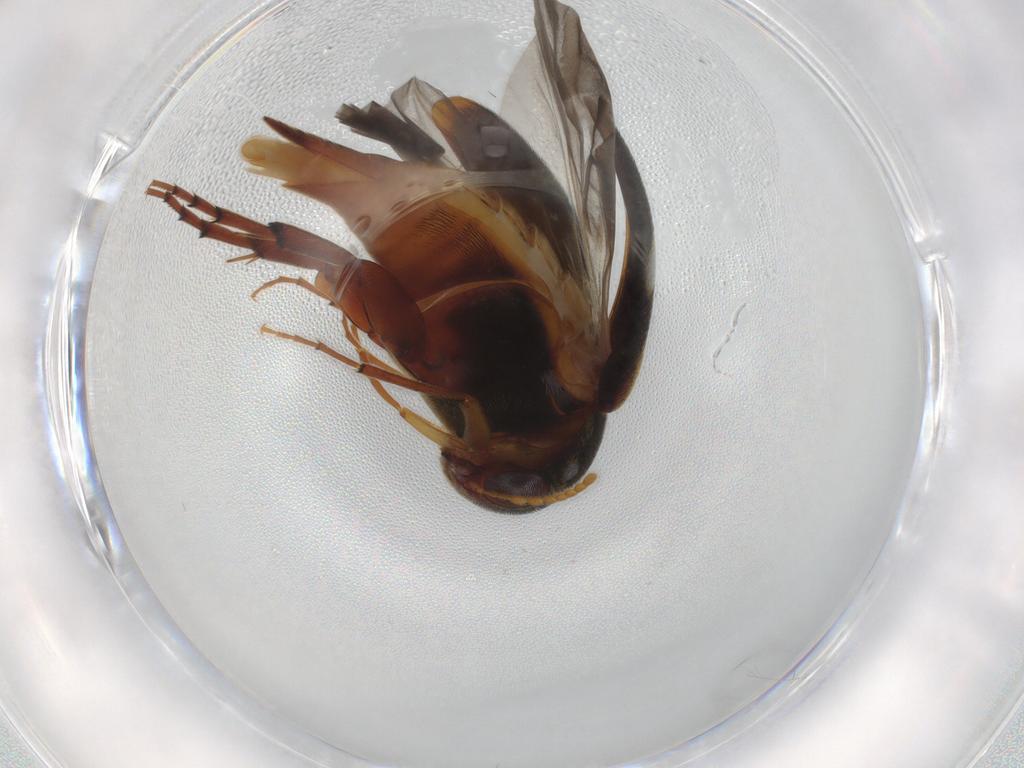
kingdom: Animalia
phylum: Arthropoda
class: Insecta
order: Coleoptera
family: Mordellidae
